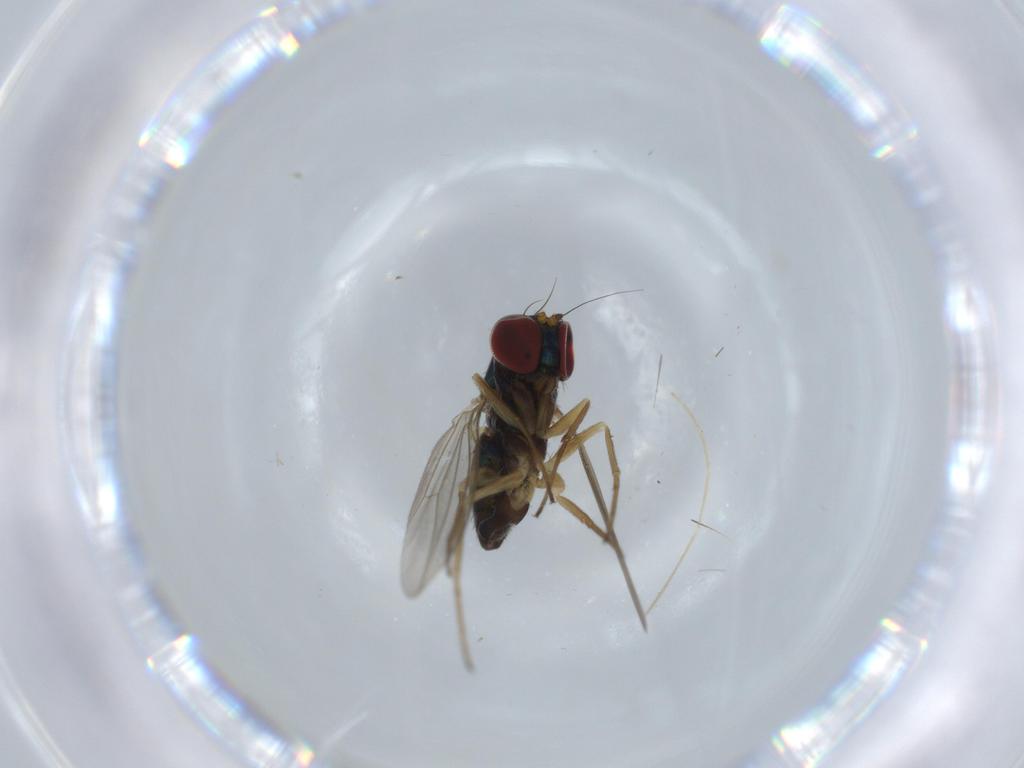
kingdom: Animalia
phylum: Arthropoda
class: Insecta
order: Diptera
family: Dolichopodidae
